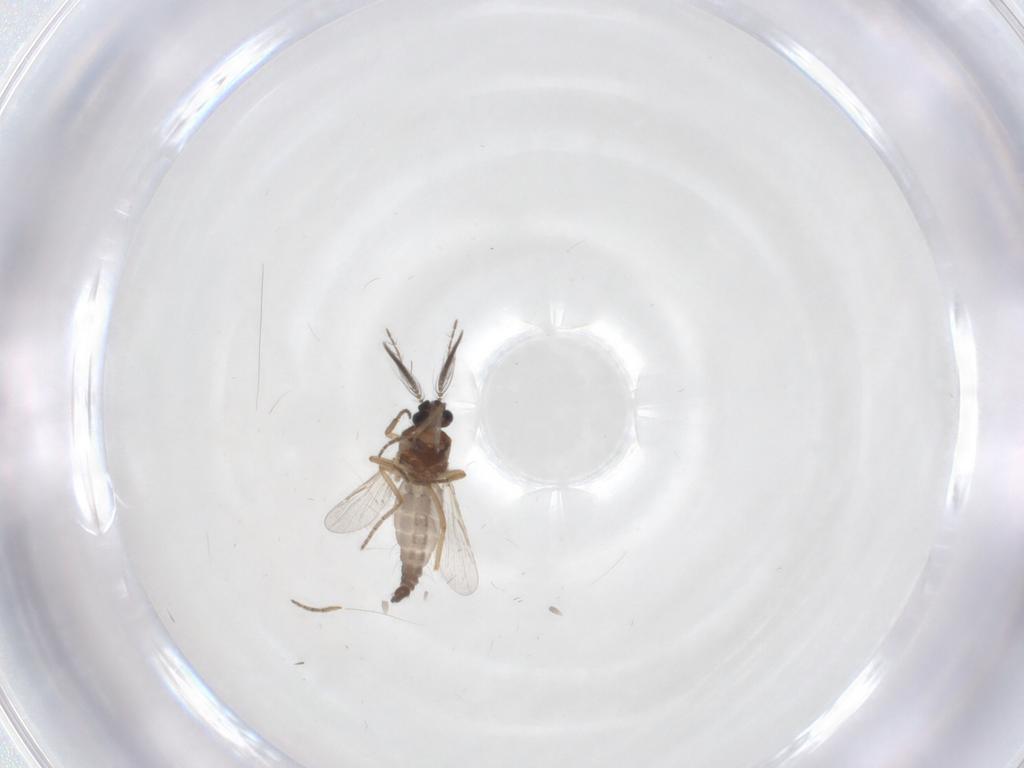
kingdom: Animalia
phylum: Arthropoda
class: Insecta
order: Diptera
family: Ceratopogonidae
